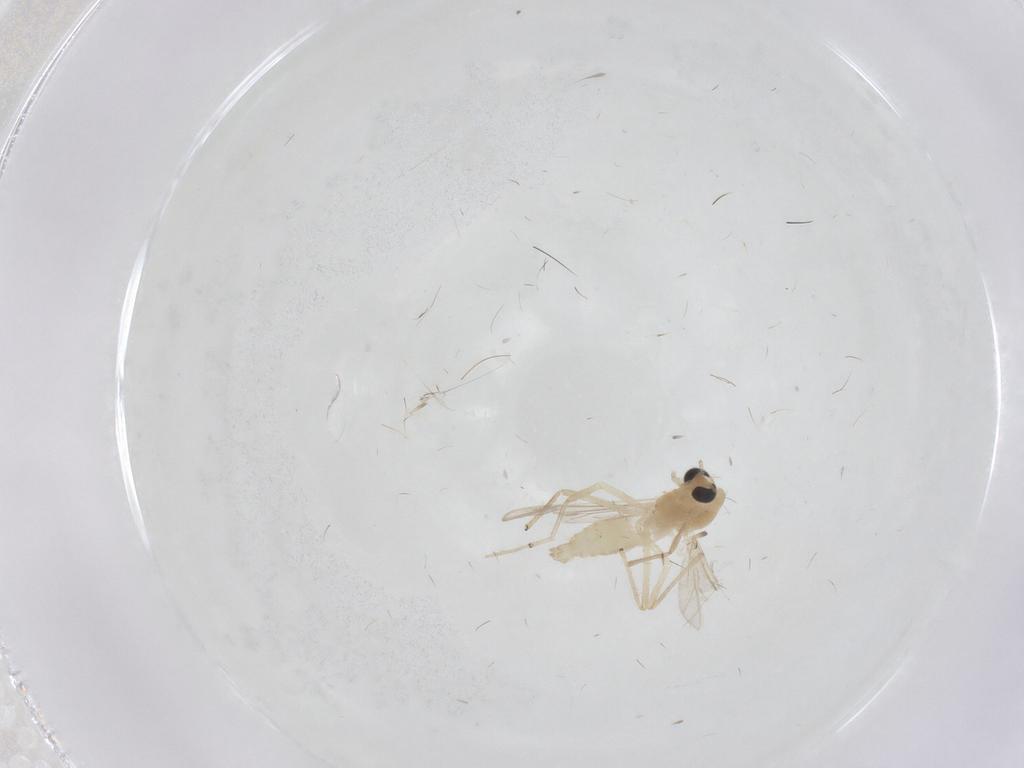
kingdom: Animalia
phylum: Arthropoda
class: Insecta
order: Diptera
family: Chironomidae
